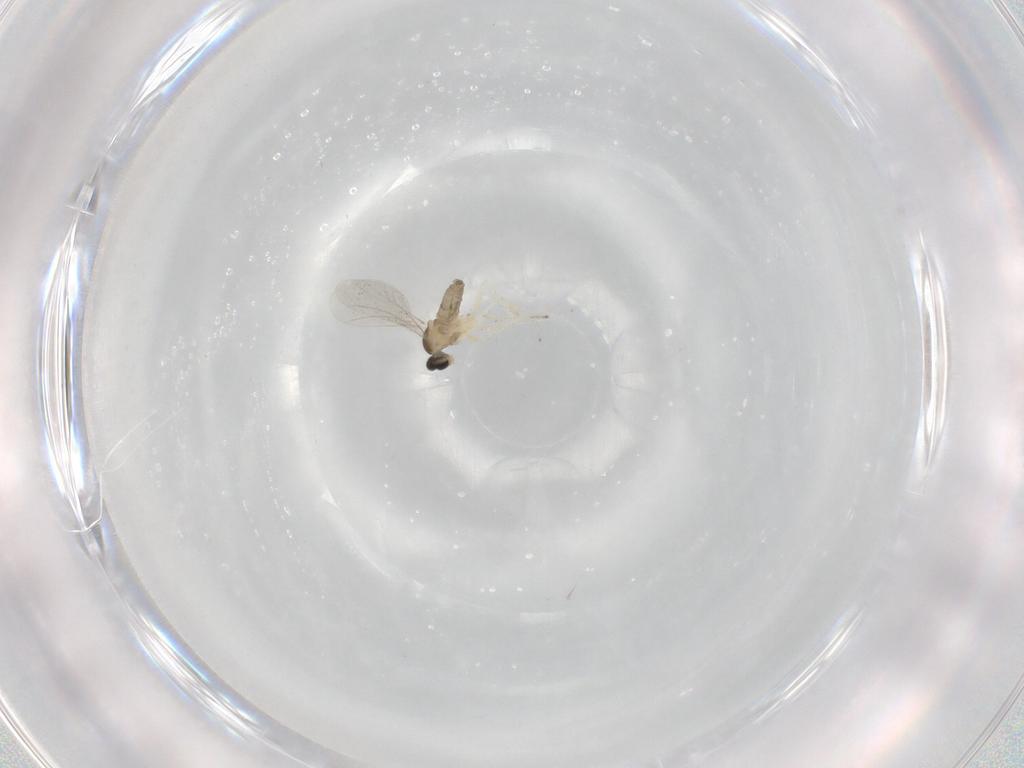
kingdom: Animalia
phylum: Arthropoda
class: Insecta
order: Diptera
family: Cecidomyiidae
